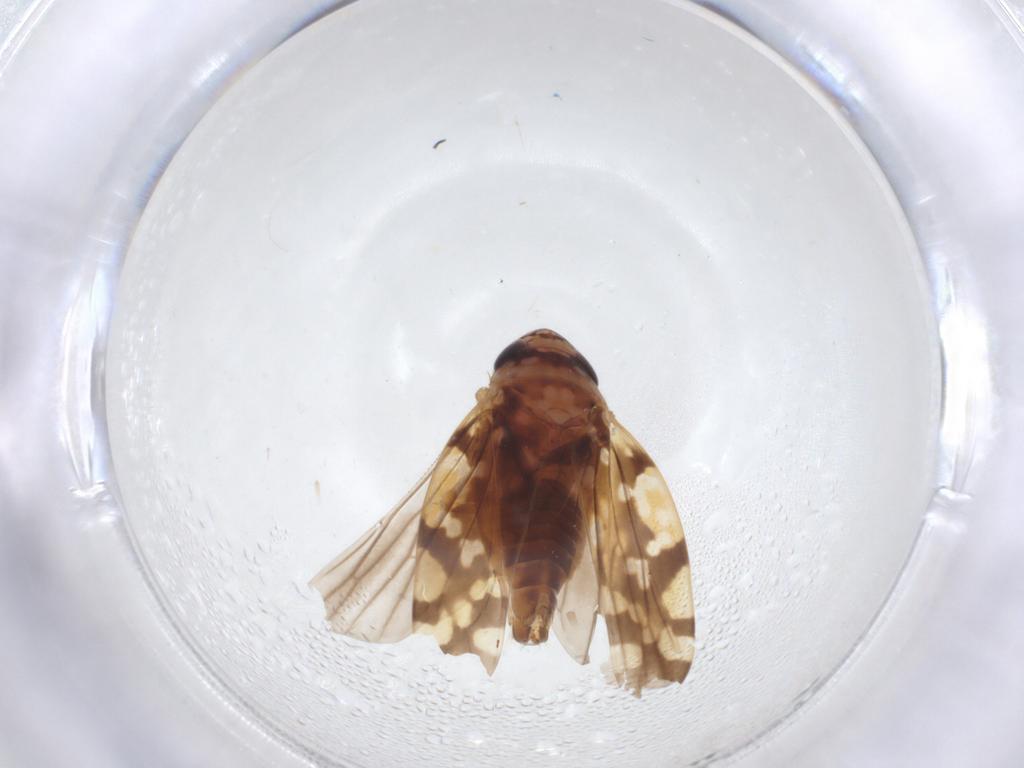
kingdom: Animalia
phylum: Arthropoda
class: Insecta
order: Hemiptera
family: Cicadellidae
